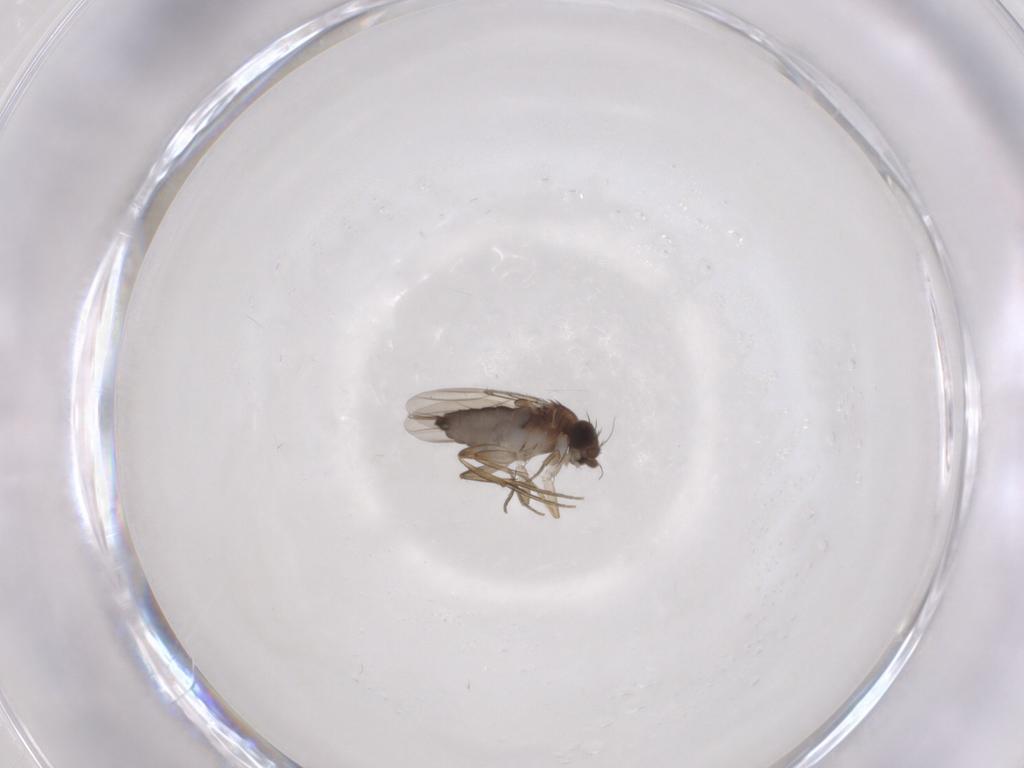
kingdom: Animalia
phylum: Arthropoda
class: Insecta
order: Diptera
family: Phoridae
